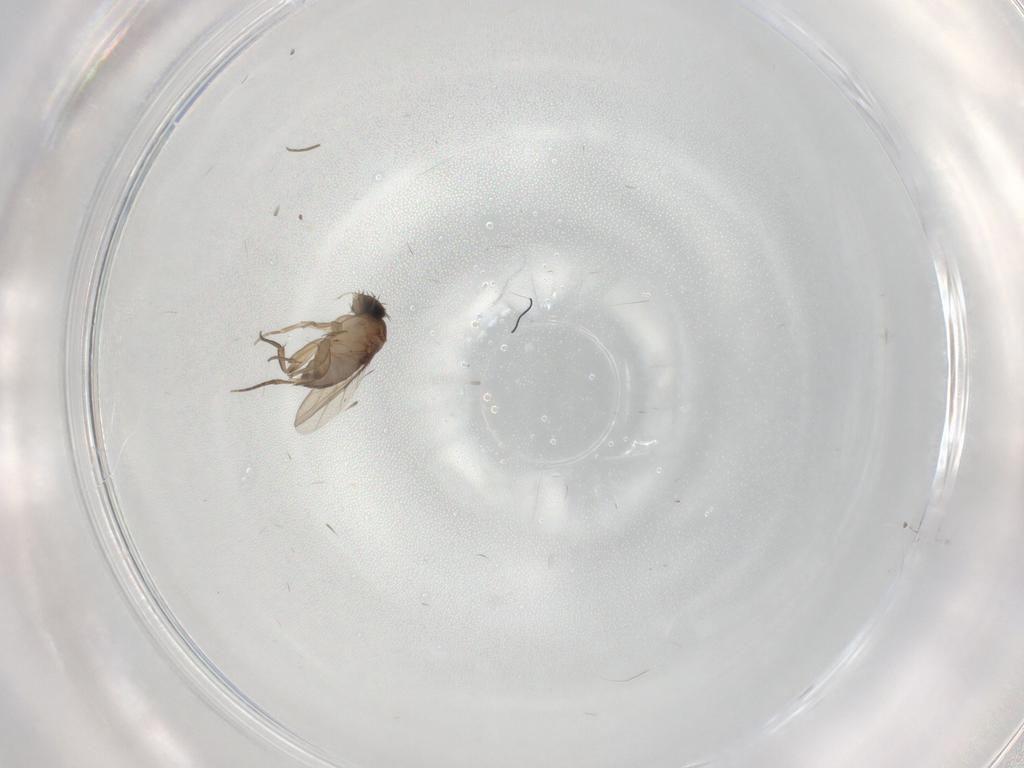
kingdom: Animalia
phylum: Arthropoda
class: Insecta
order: Diptera
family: Phoridae
